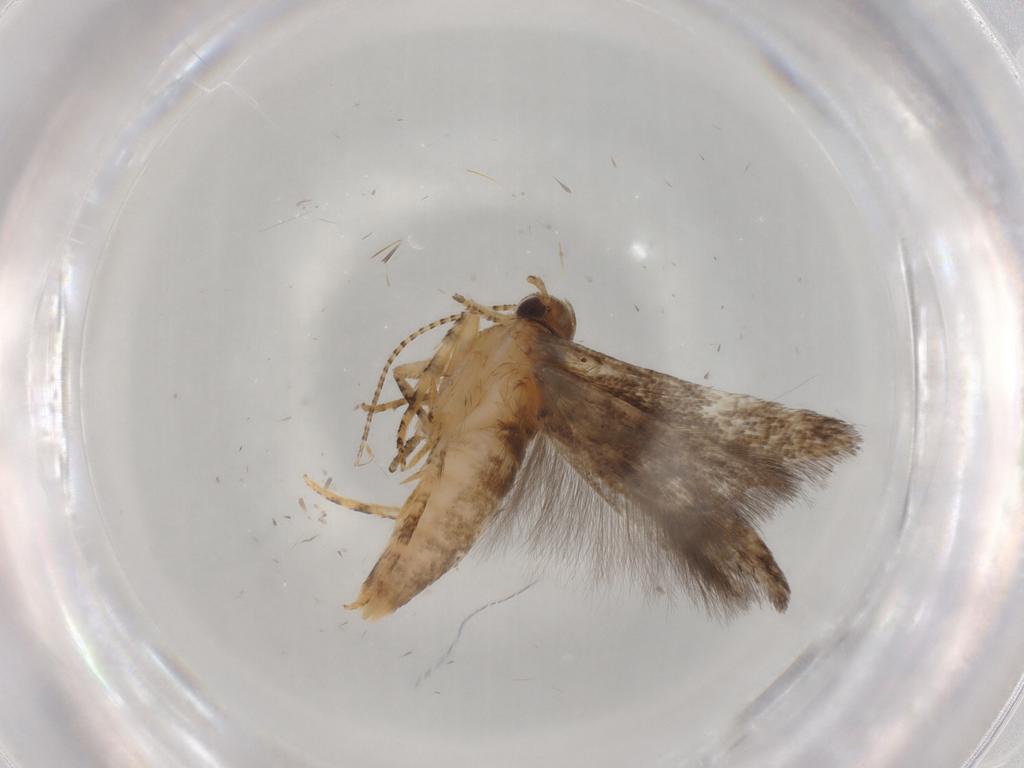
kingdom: Animalia
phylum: Arthropoda
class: Insecta
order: Lepidoptera
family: Gelechiidae
